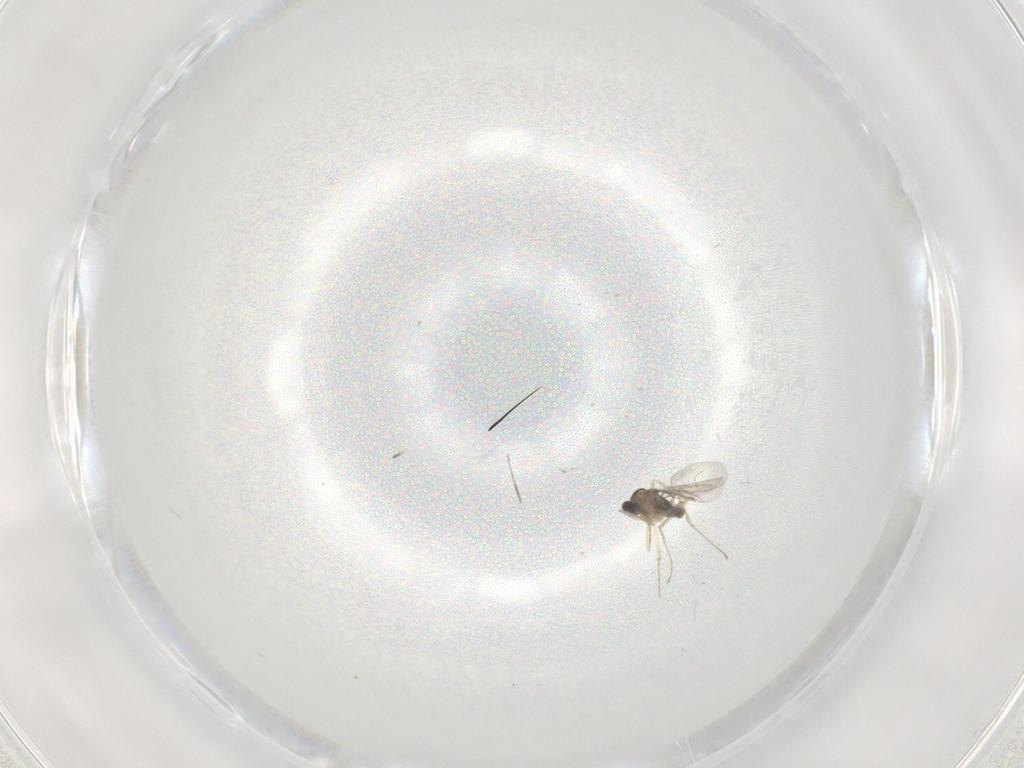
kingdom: Animalia
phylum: Arthropoda
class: Insecta
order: Diptera
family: Cecidomyiidae
